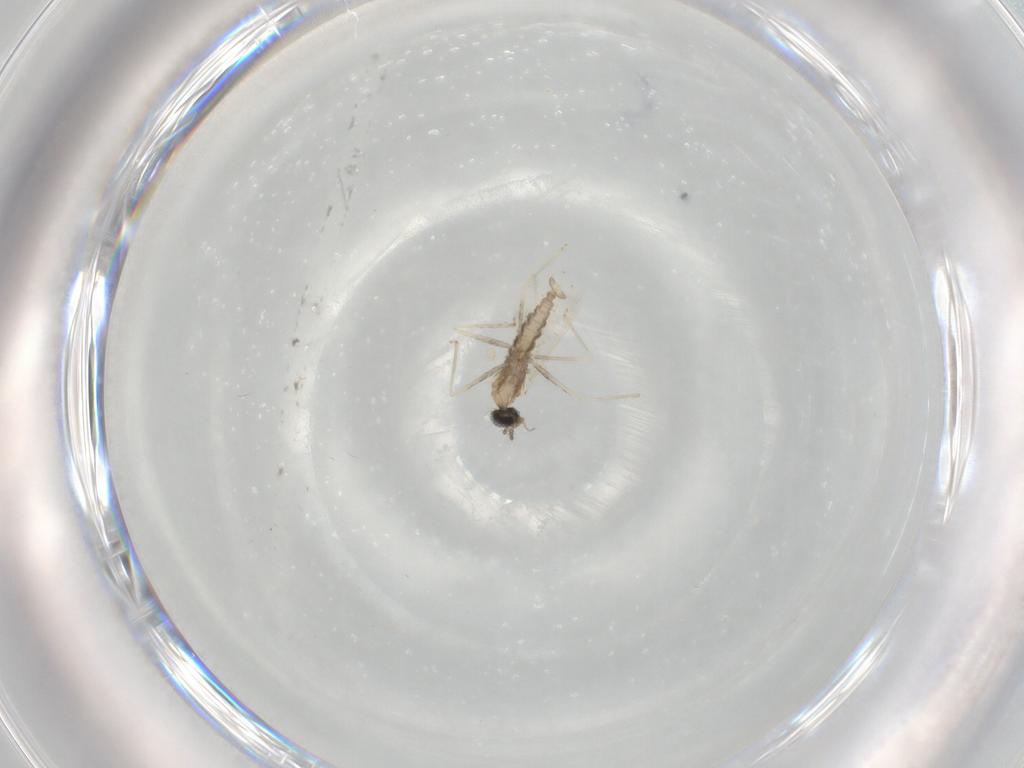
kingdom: Animalia
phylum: Arthropoda
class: Insecta
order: Diptera
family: Cecidomyiidae
